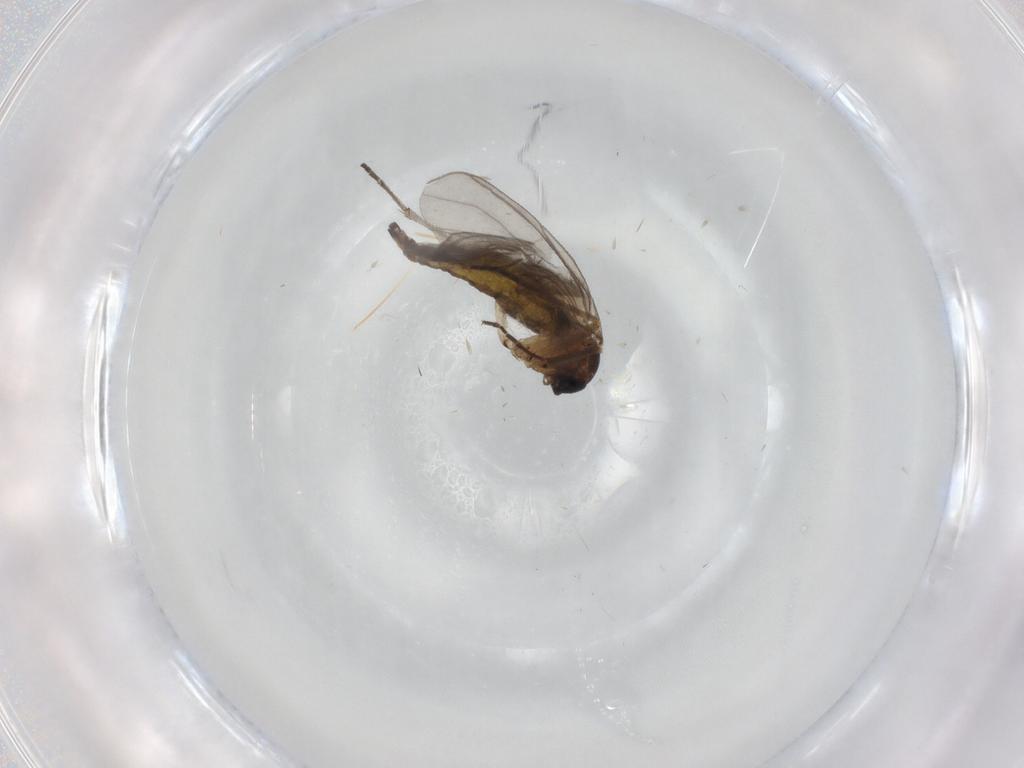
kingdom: Animalia
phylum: Arthropoda
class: Insecta
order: Diptera
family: Sciaridae
